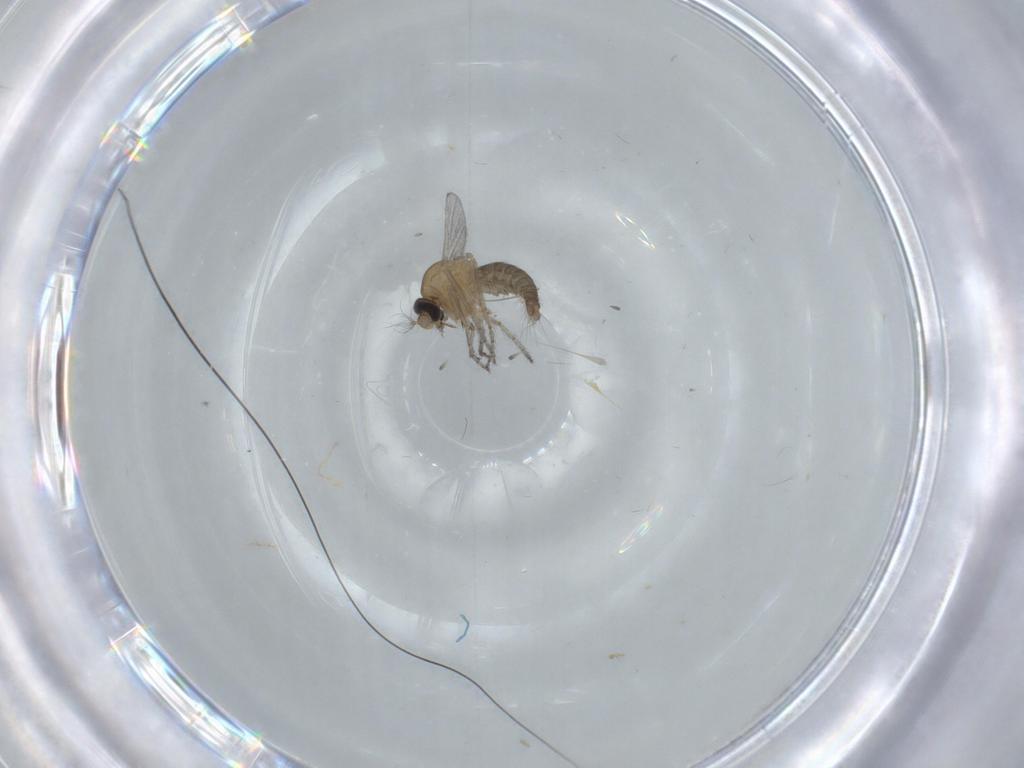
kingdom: Animalia
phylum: Arthropoda
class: Insecta
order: Diptera
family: Ceratopogonidae
